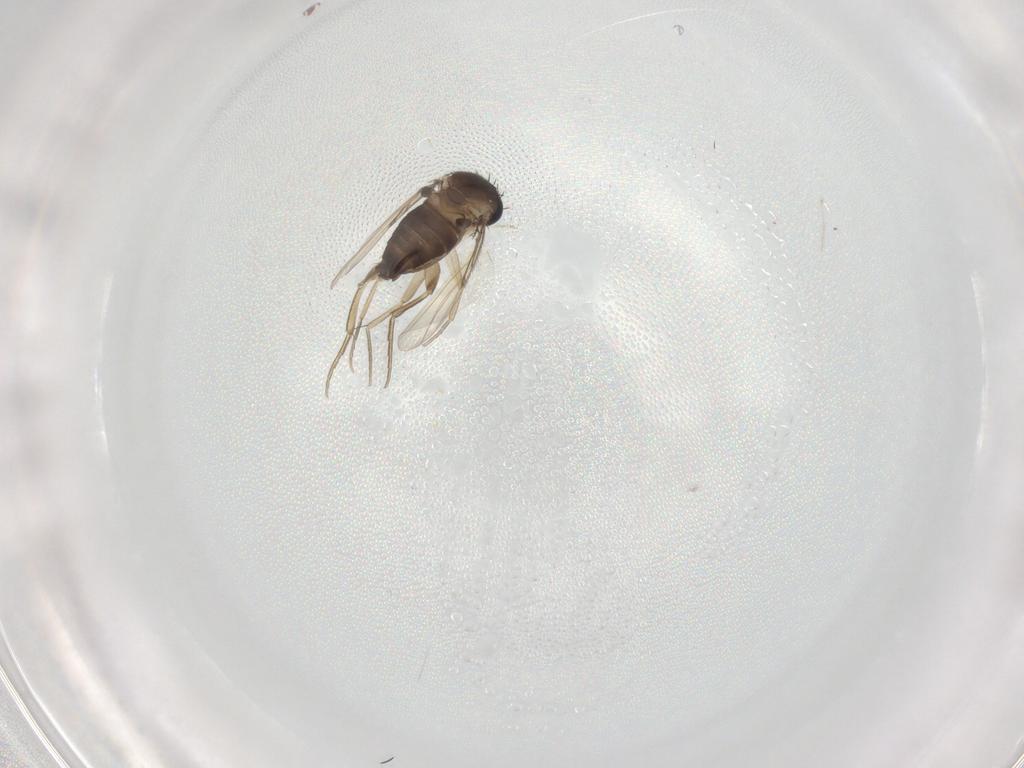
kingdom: Animalia
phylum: Arthropoda
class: Insecta
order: Diptera
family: Cecidomyiidae
